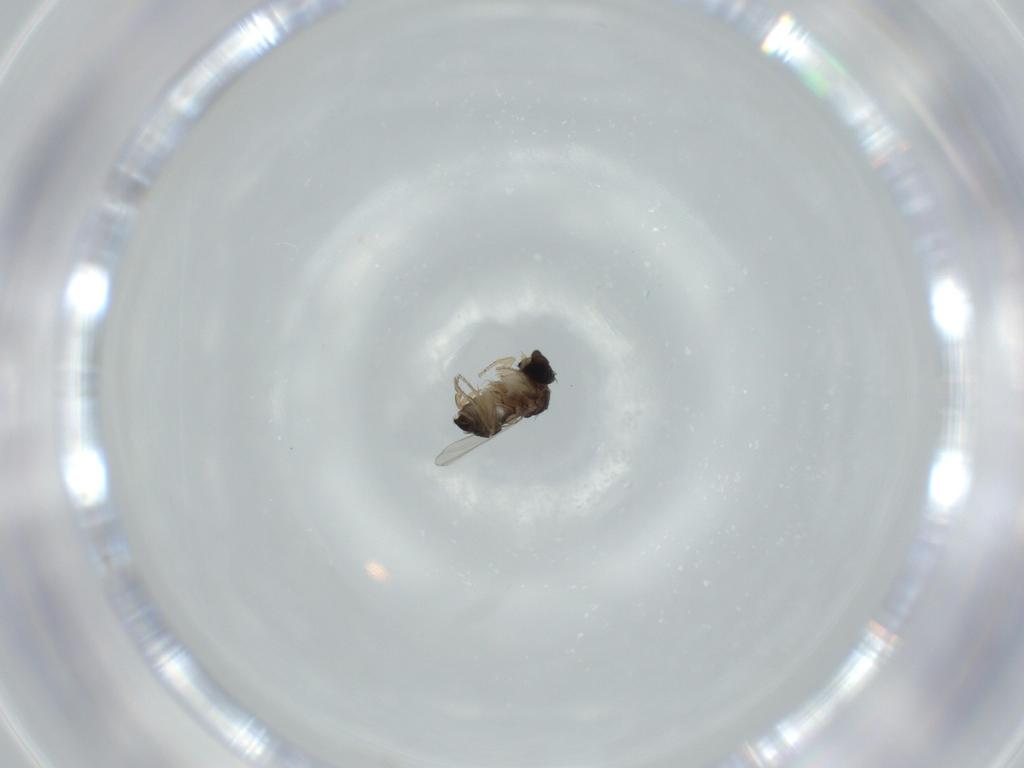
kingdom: Animalia
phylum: Arthropoda
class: Insecta
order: Diptera
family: Phoridae
